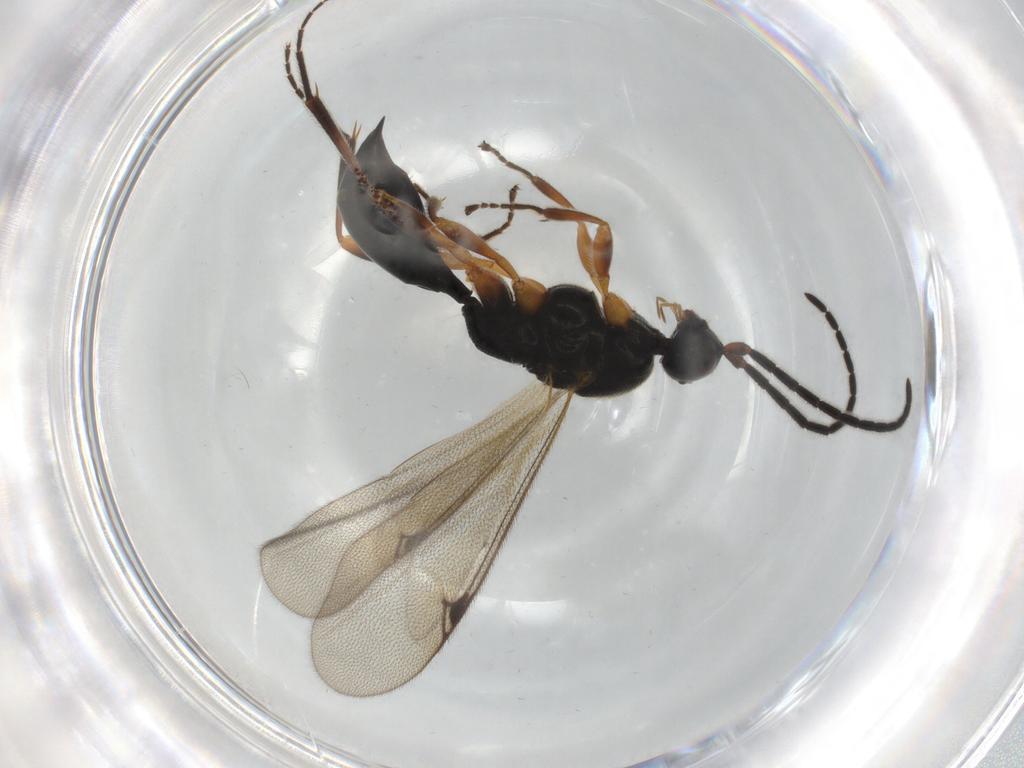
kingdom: Animalia
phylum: Arthropoda
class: Insecta
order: Hymenoptera
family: Proctotrupidae
